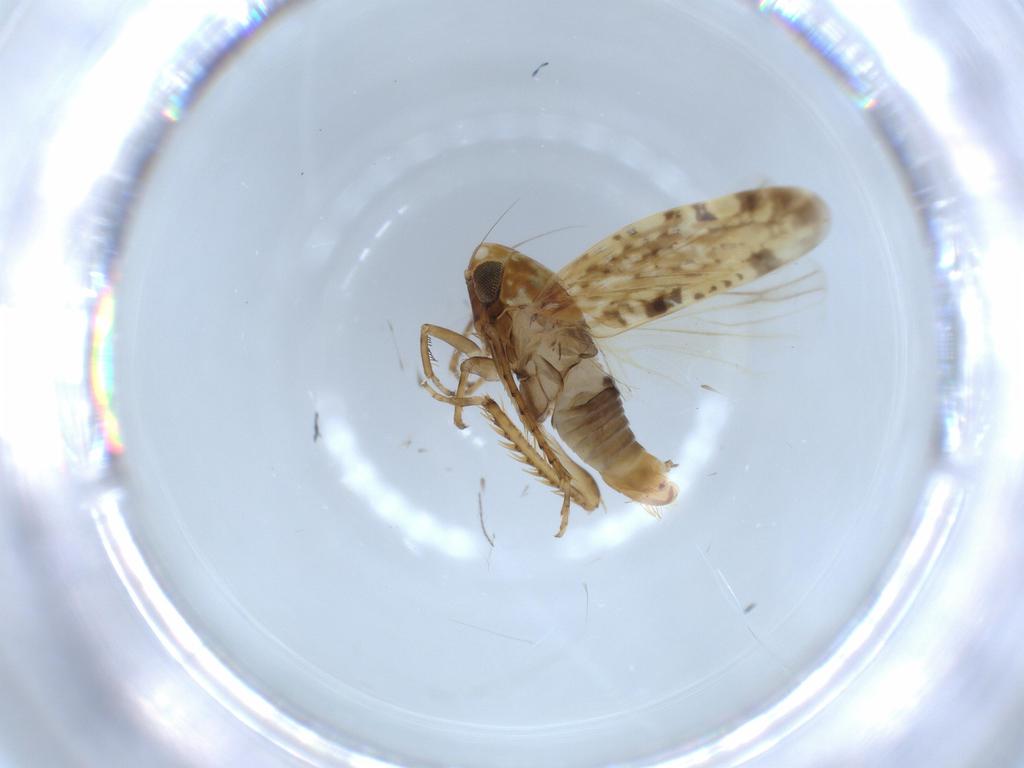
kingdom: Animalia
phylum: Arthropoda
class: Insecta
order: Hemiptera
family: Cicadellidae
